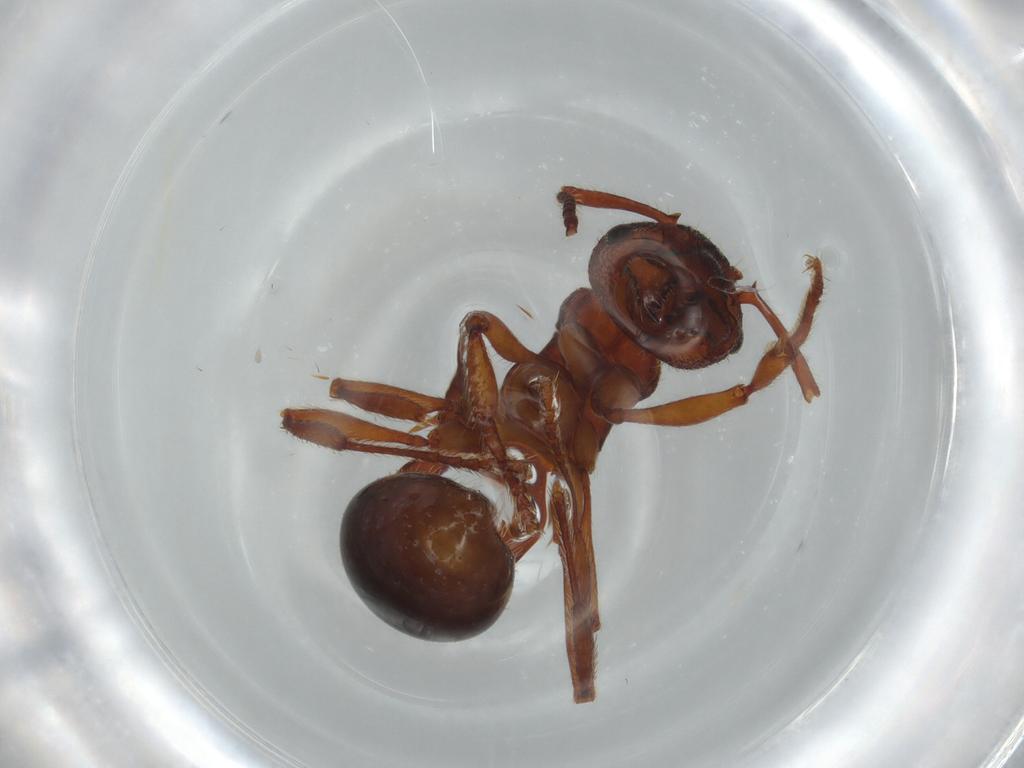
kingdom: Animalia
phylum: Arthropoda
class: Insecta
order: Hymenoptera
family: Formicidae
